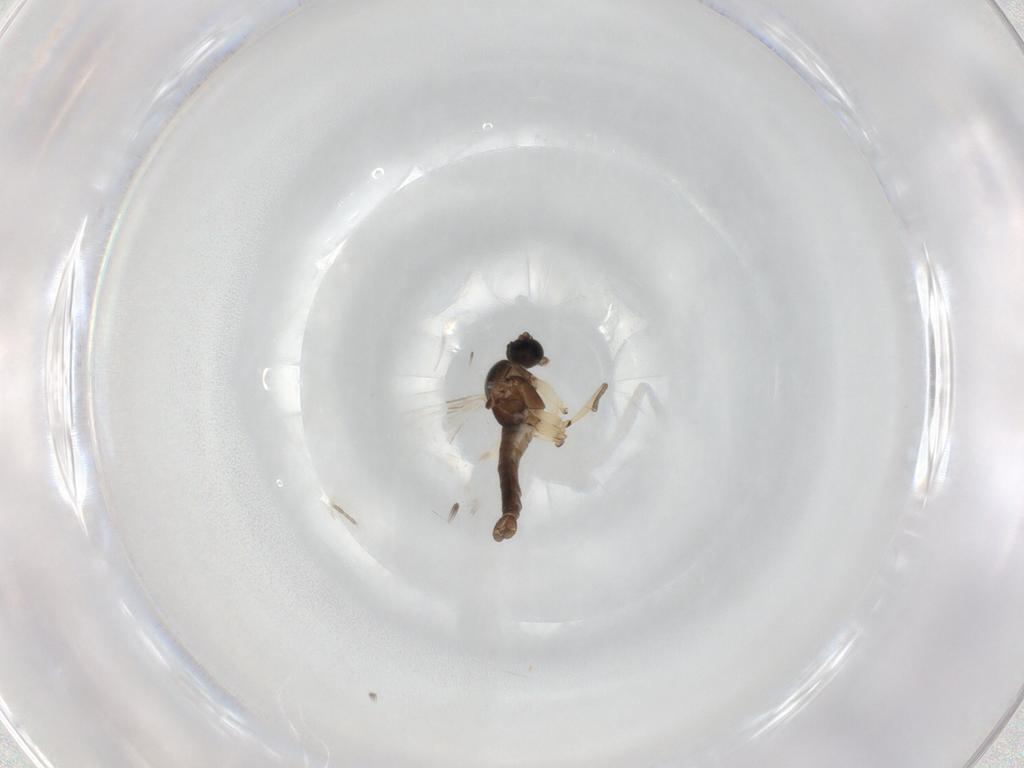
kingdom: Animalia
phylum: Arthropoda
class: Insecta
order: Diptera
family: Sciaridae
